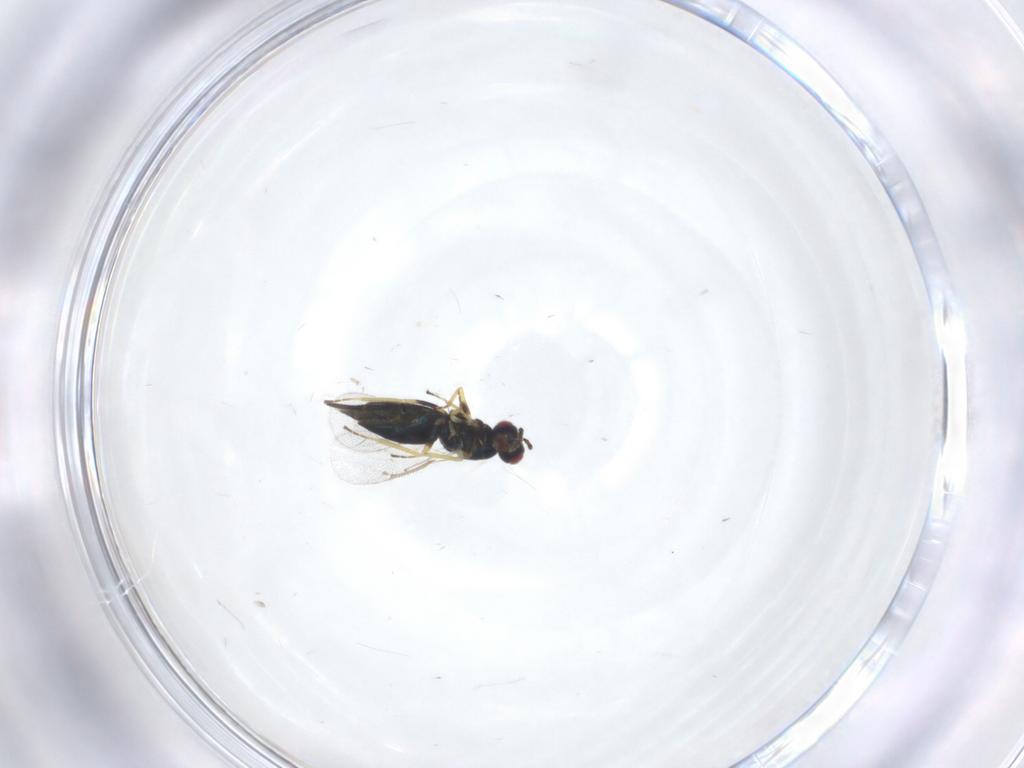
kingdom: Animalia
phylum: Arthropoda
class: Insecta
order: Hymenoptera
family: Eulophidae
